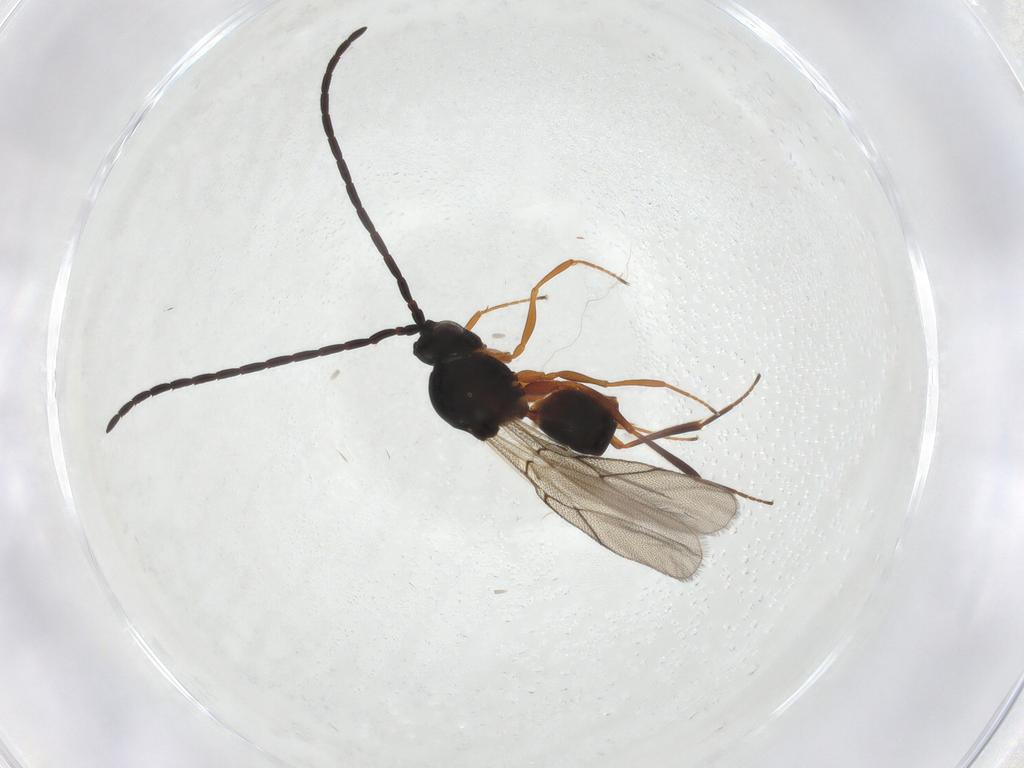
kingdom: Animalia
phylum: Arthropoda
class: Insecta
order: Hymenoptera
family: Figitidae
